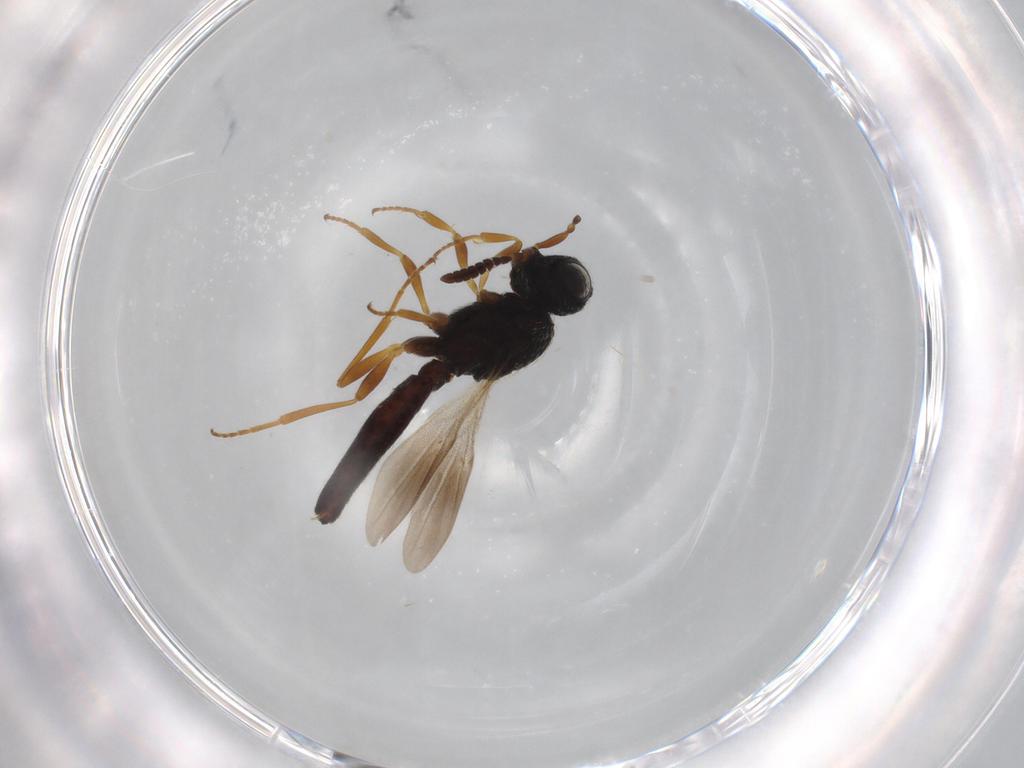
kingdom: Animalia
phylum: Arthropoda
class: Insecta
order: Hymenoptera
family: Scelionidae
